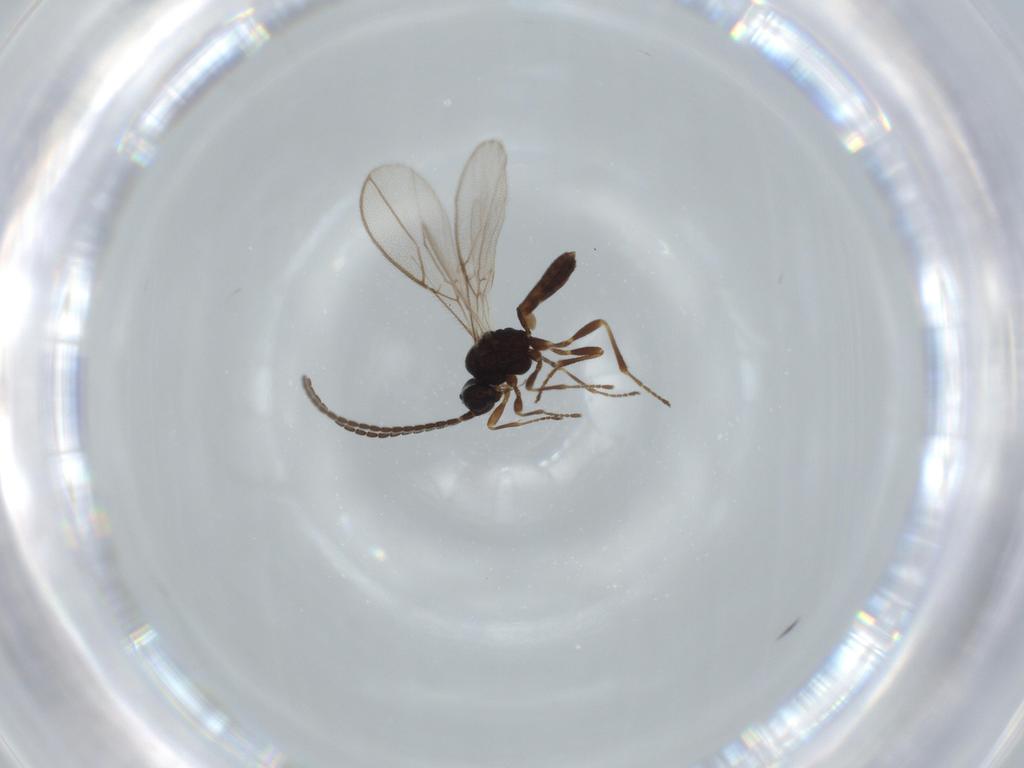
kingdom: Animalia
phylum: Arthropoda
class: Insecta
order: Hymenoptera
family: Braconidae
